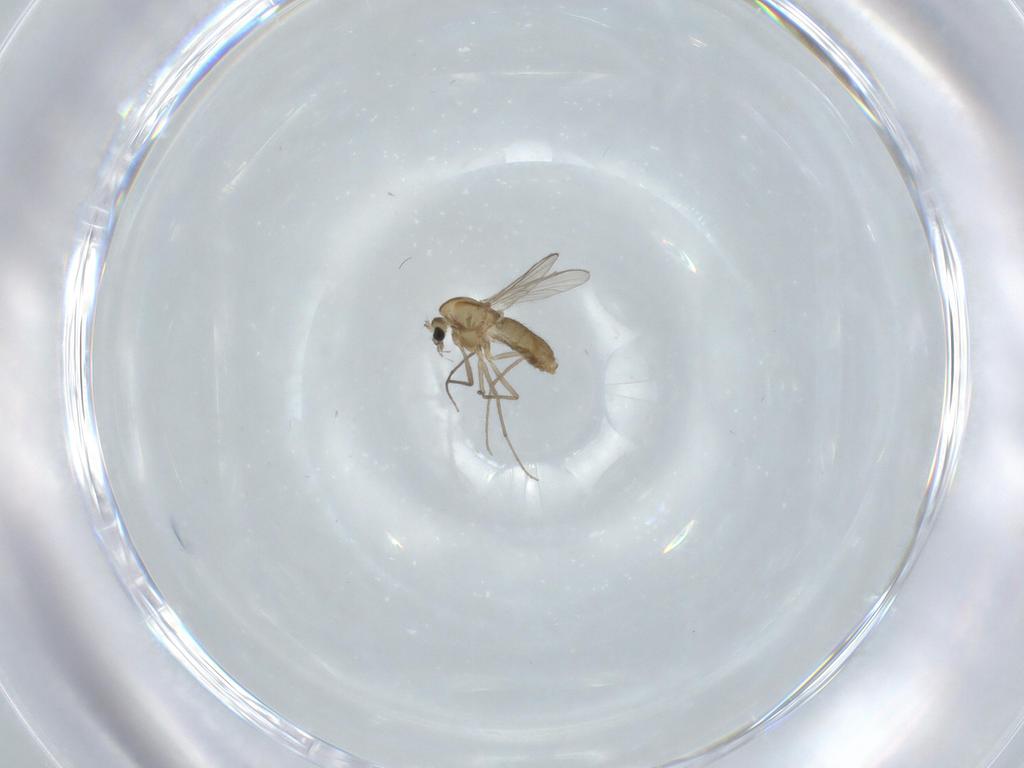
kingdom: Animalia
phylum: Arthropoda
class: Insecta
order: Diptera
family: Chironomidae
